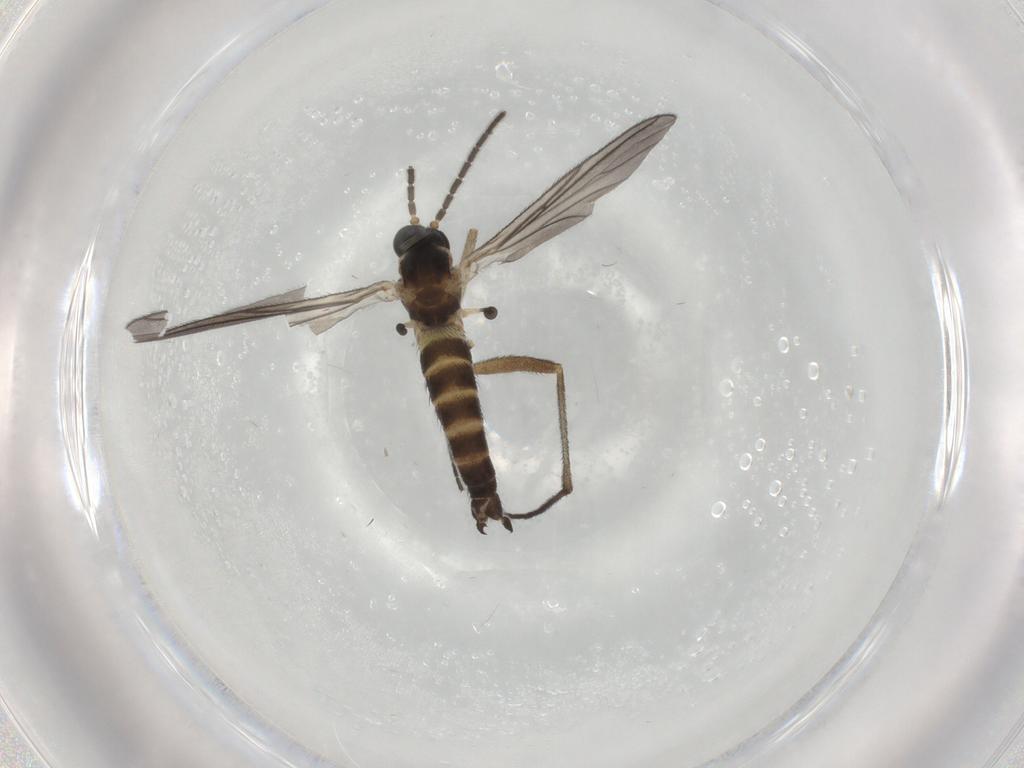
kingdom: Animalia
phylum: Arthropoda
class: Insecta
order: Diptera
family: Sciaridae
